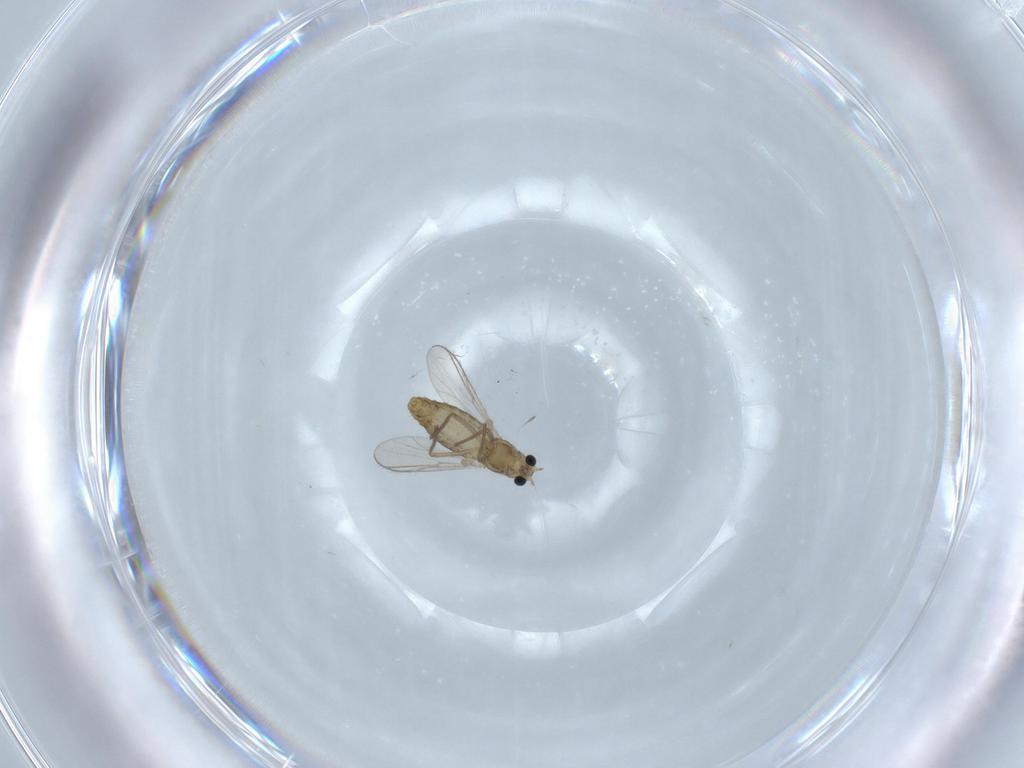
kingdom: Animalia
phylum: Arthropoda
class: Insecta
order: Diptera
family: Chironomidae
